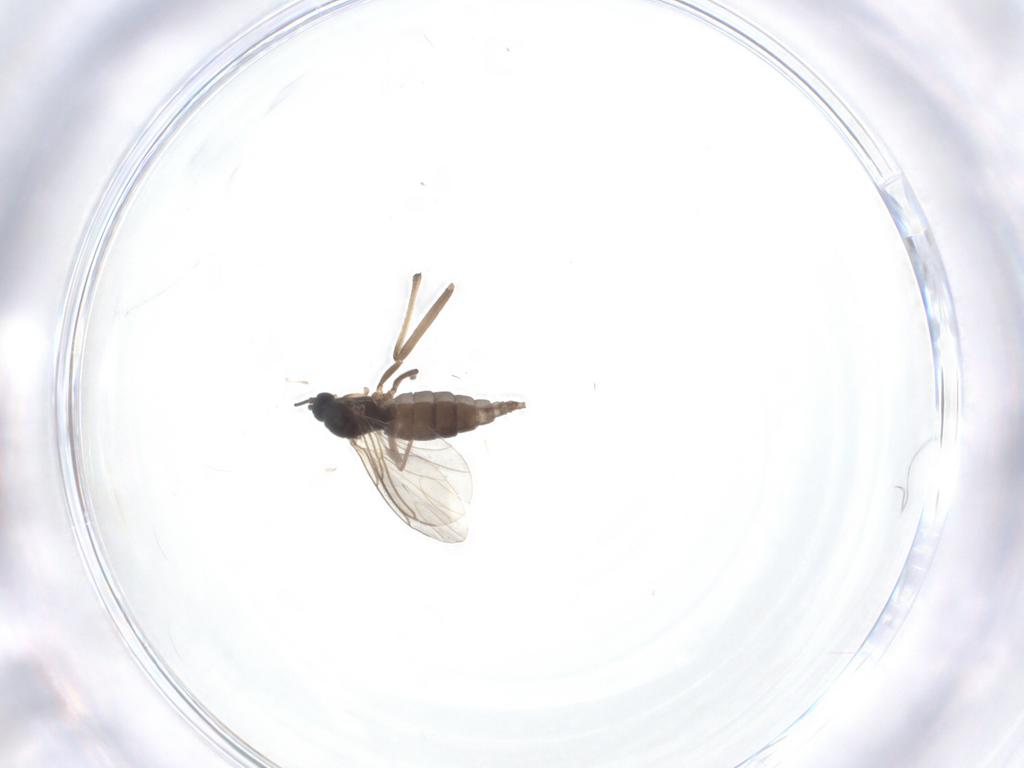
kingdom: Animalia
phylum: Arthropoda
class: Insecta
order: Diptera
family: Sciaridae
